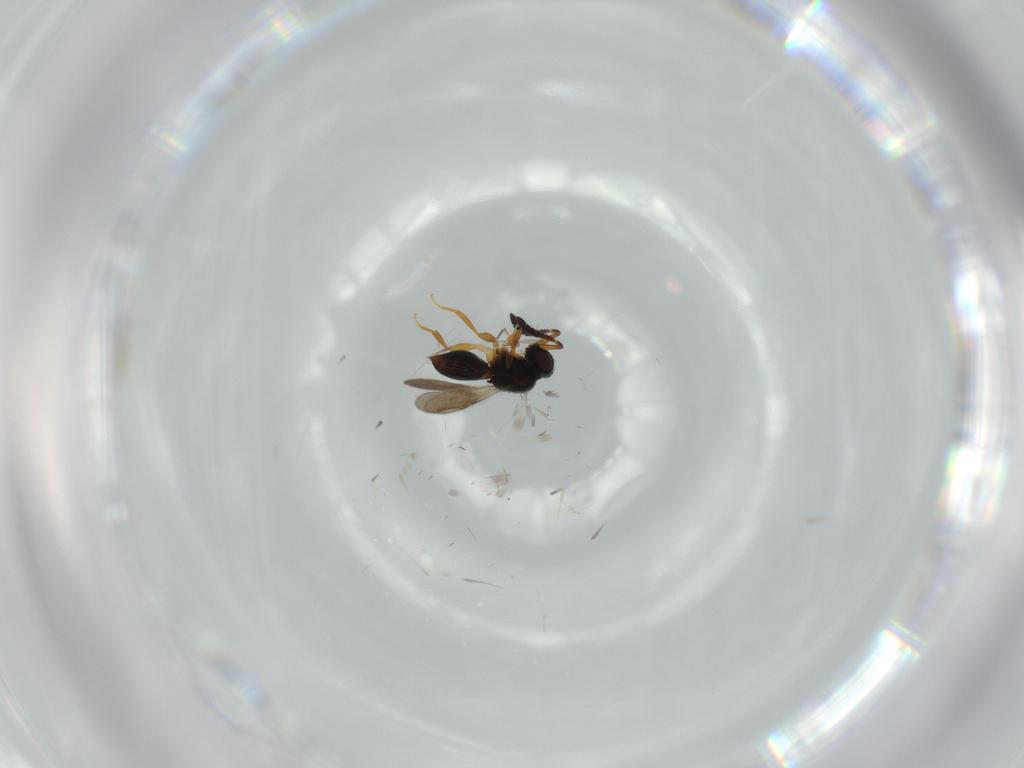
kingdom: Animalia
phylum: Arthropoda
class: Insecta
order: Hymenoptera
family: Ceraphronidae
